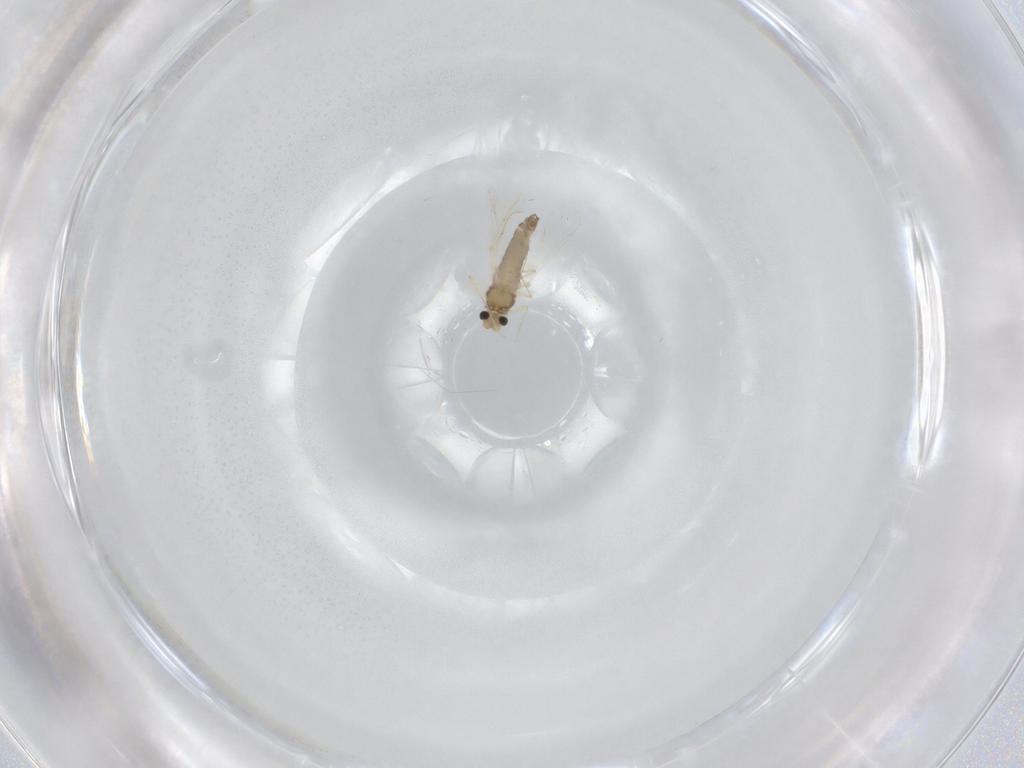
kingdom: Animalia
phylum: Arthropoda
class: Insecta
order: Diptera
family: Chironomidae
